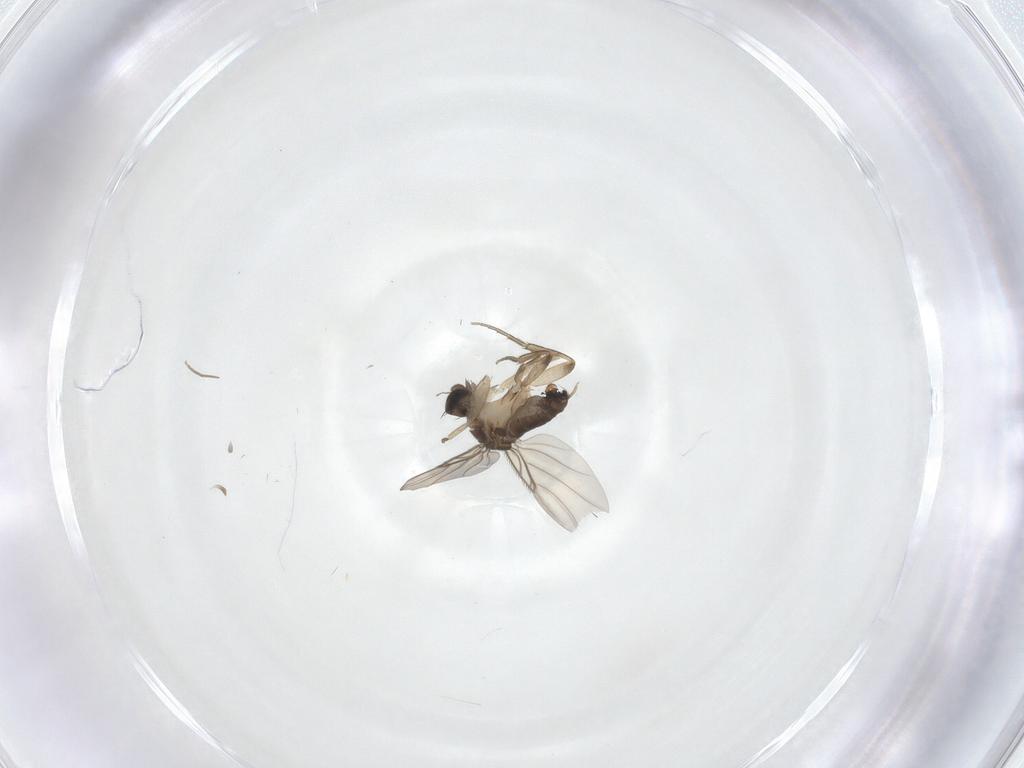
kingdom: Animalia
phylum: Arthropoda
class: Insecta
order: Diptera
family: Phoridae
